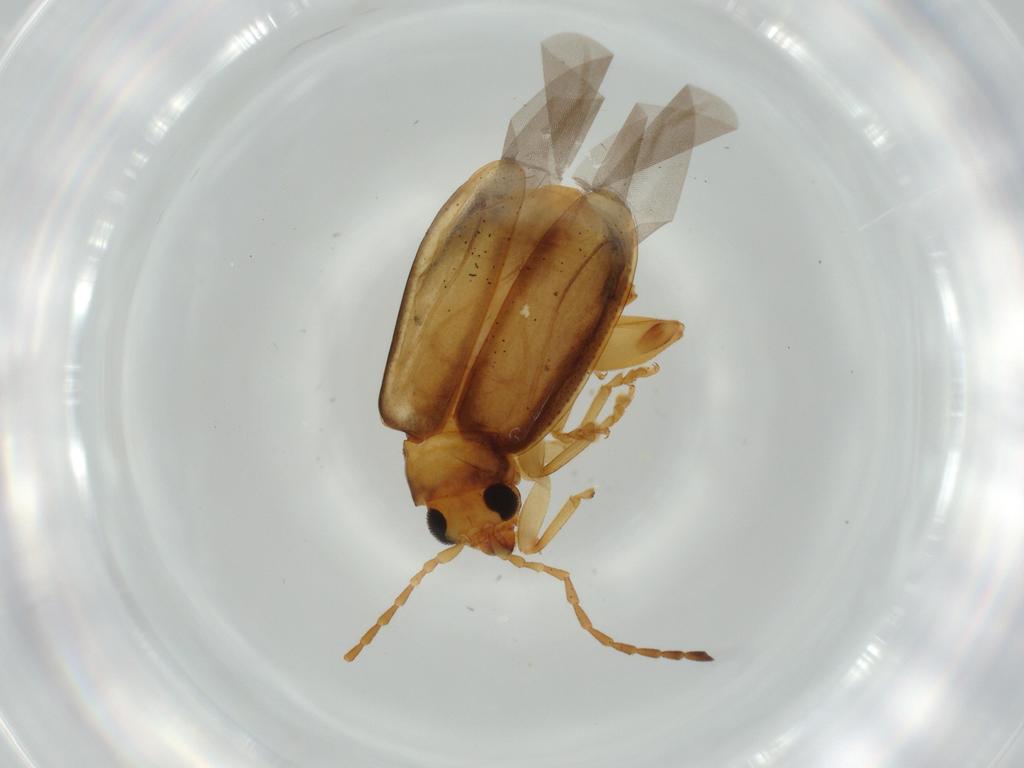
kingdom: Animalia
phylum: Arthropoda
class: Insecta
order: Coleoptera
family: Chrysomelidae
